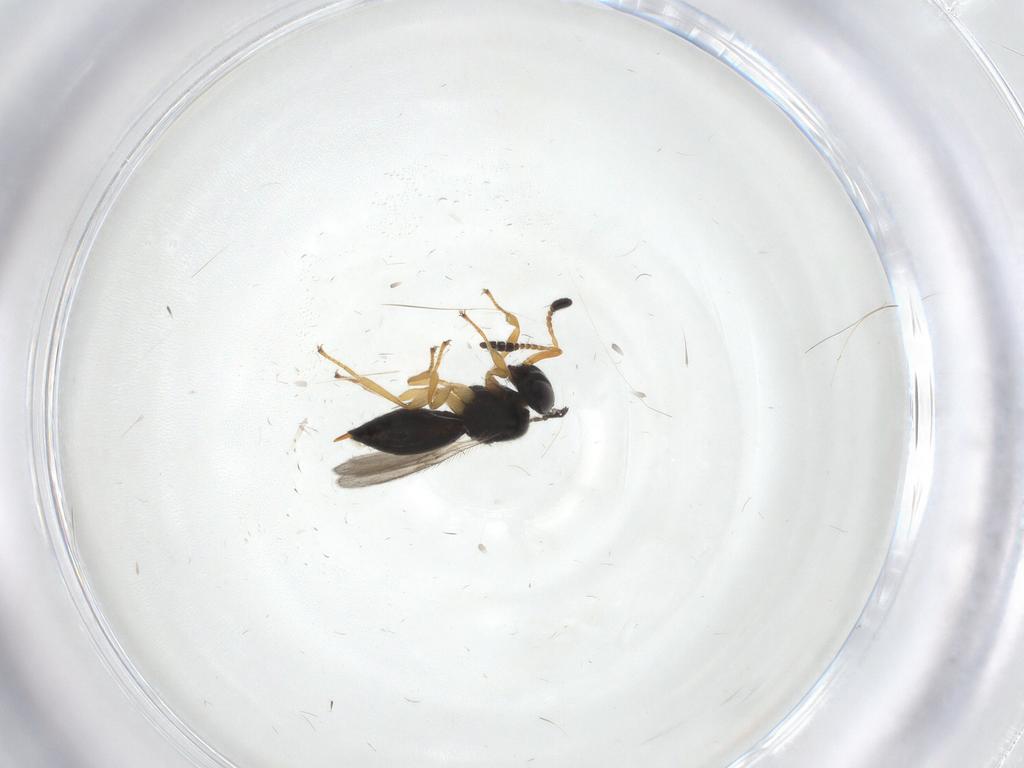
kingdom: Animalia
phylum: Arthropoda
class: Insecta
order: Hymenoptera
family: Scelionidae
